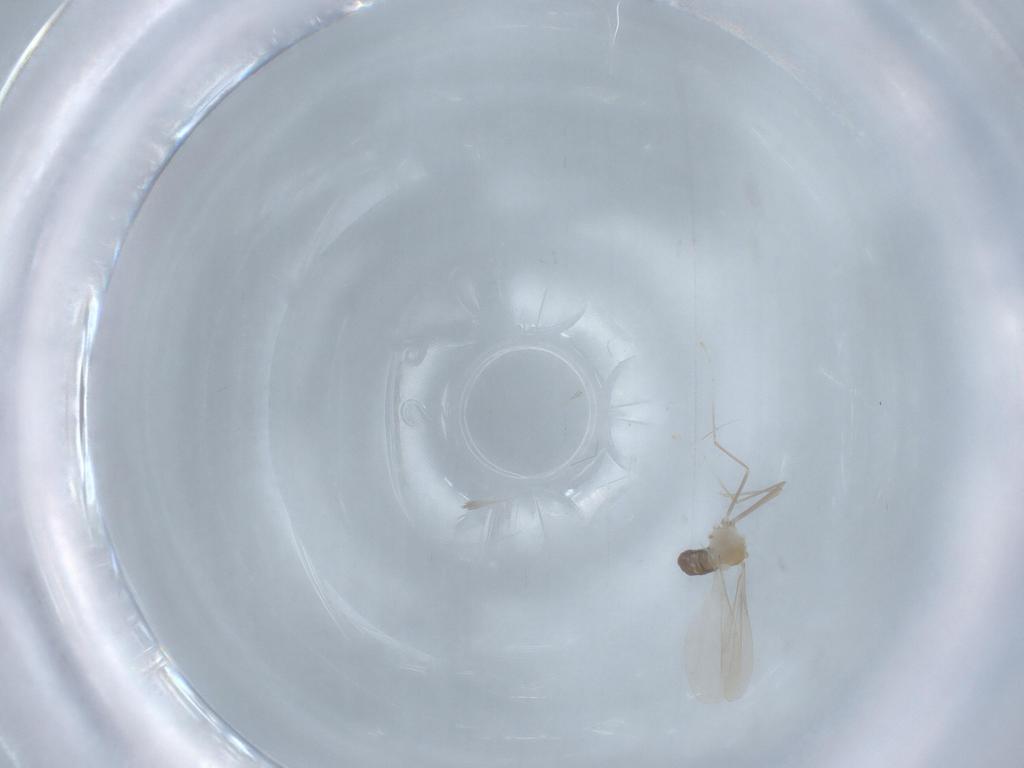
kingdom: Animalia
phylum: Arthropoda
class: Insecta
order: Diptera
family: Cecidomyiidae
